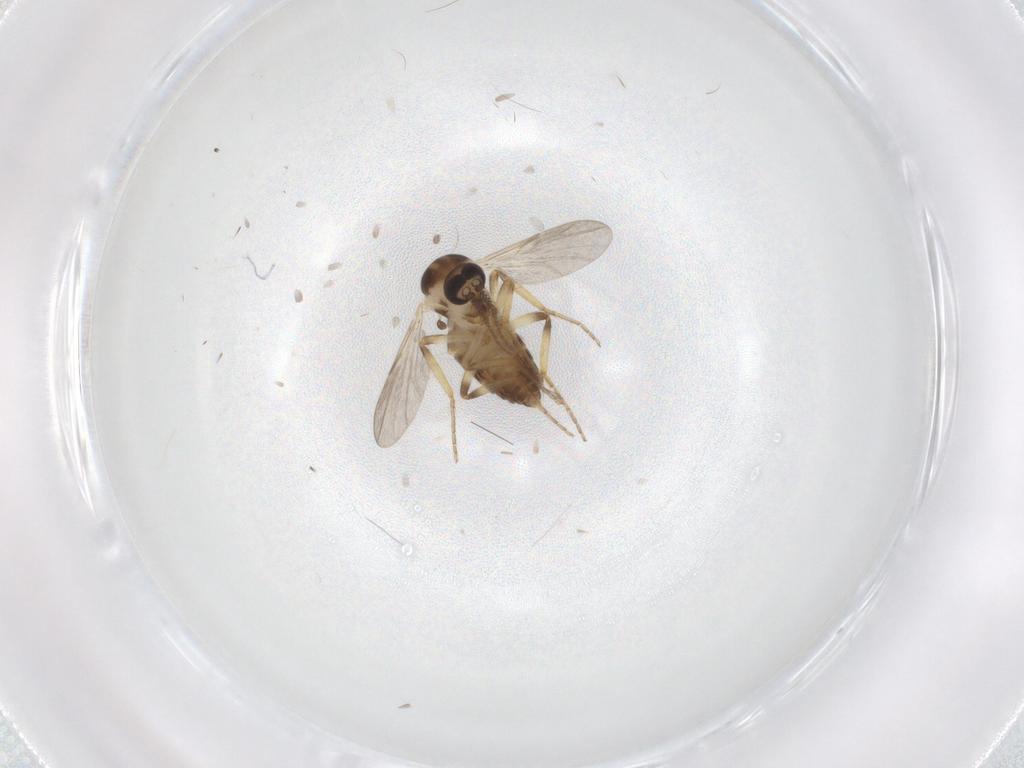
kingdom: Animalia
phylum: Arthropoda
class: Insecta
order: Diptera
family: Ceratopogonidae
